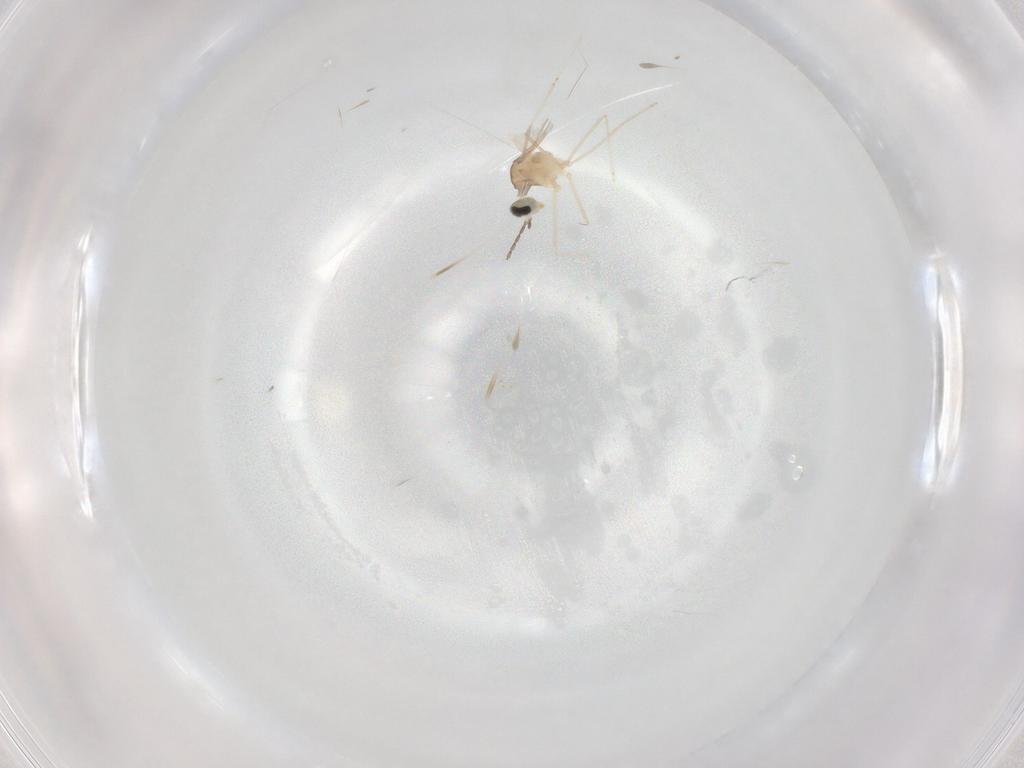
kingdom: Animalia
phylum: Arthropoda
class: Insecta
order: Diptera
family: Cecidomyiidae
